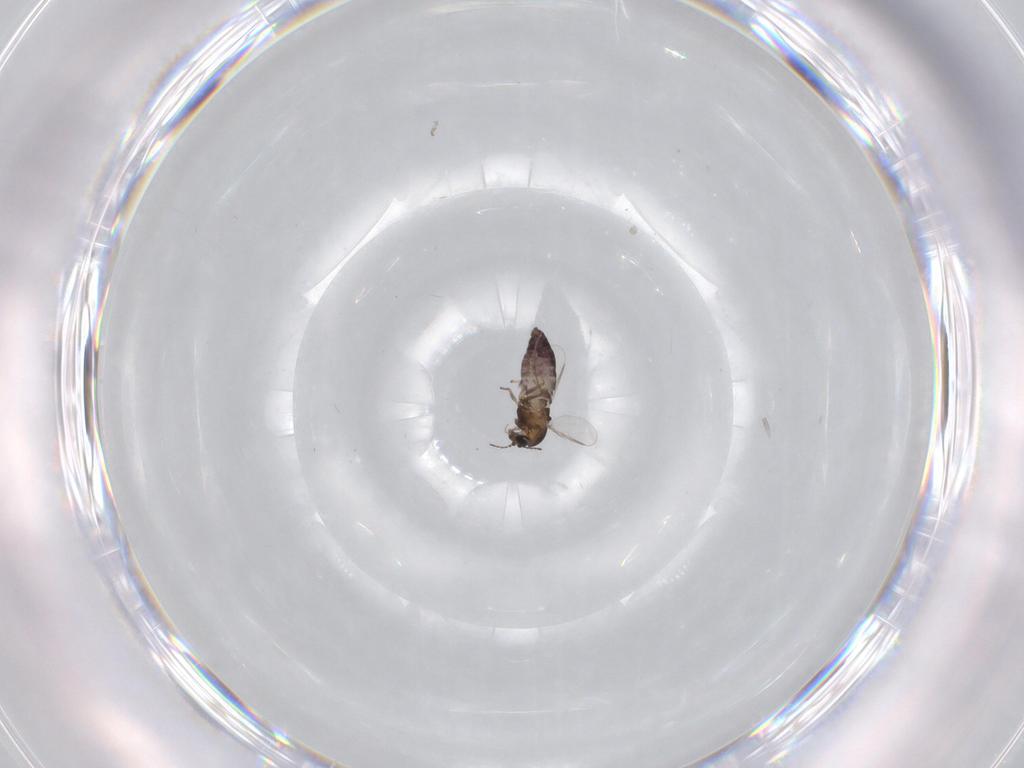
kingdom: Animalia
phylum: Arthropoda
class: Insecta
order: Diptera
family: Chironomidae
